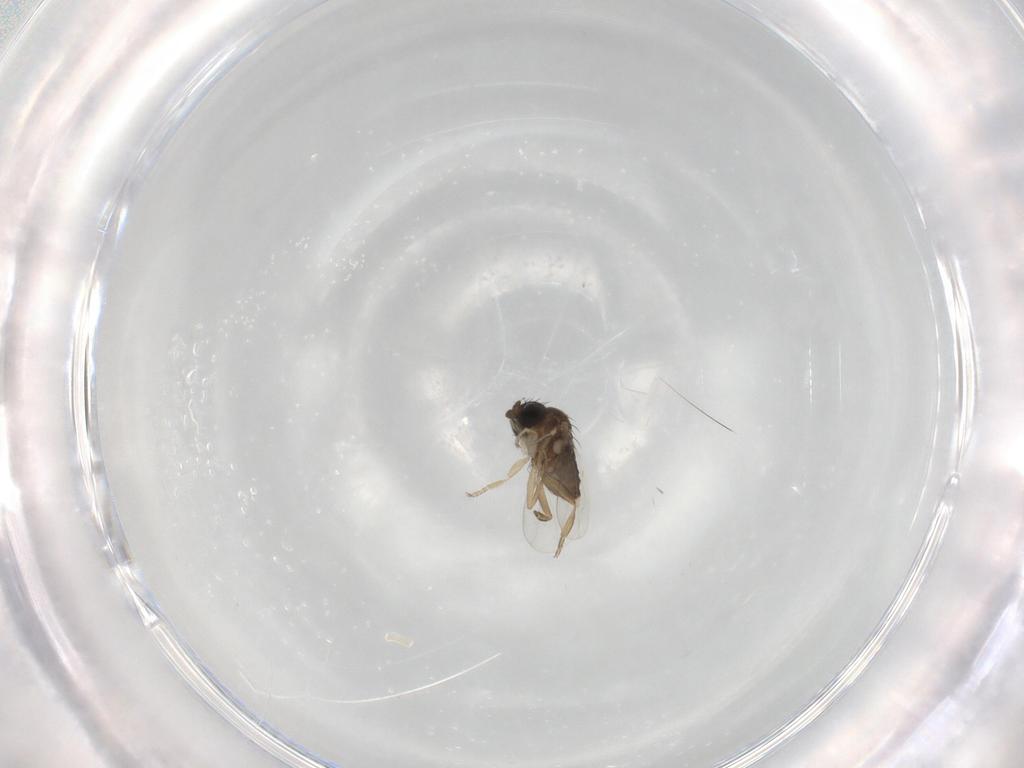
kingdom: Animalia
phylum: Arthropoda
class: Insecta
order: Diptera
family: Phoridae
